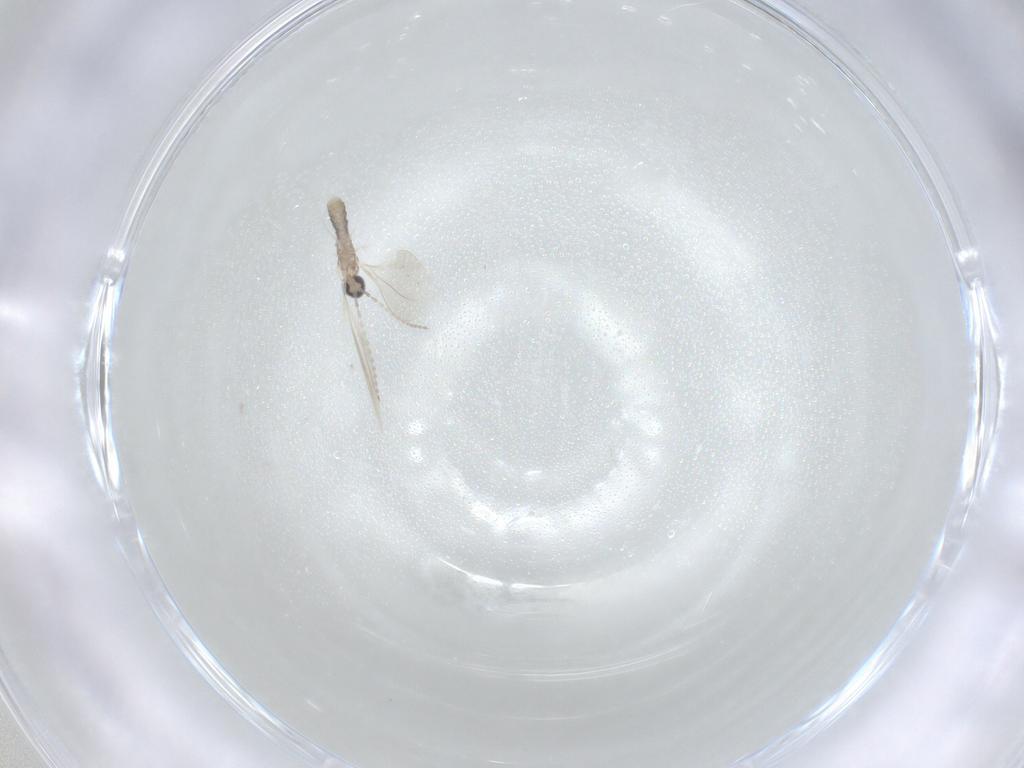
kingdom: Animalia
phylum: Arthropoda
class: Insecta
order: Diptera
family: Cecidomyiidae
